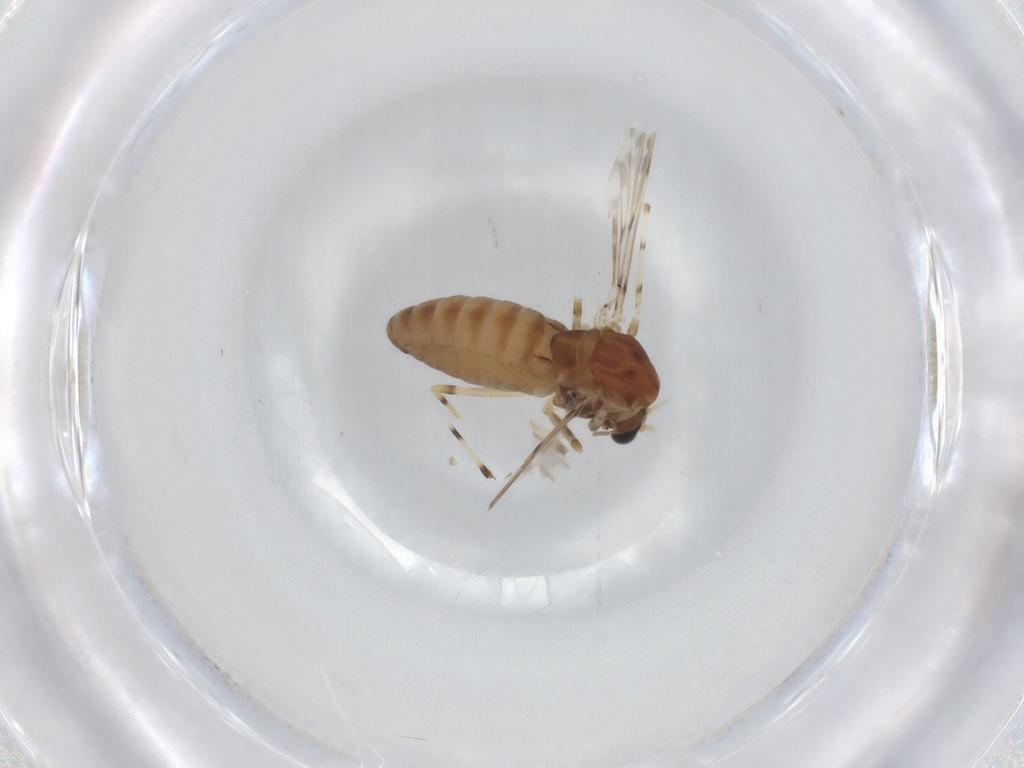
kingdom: Animalia
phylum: Arthropoda
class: Insecta
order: Diptera
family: Chironomidae
